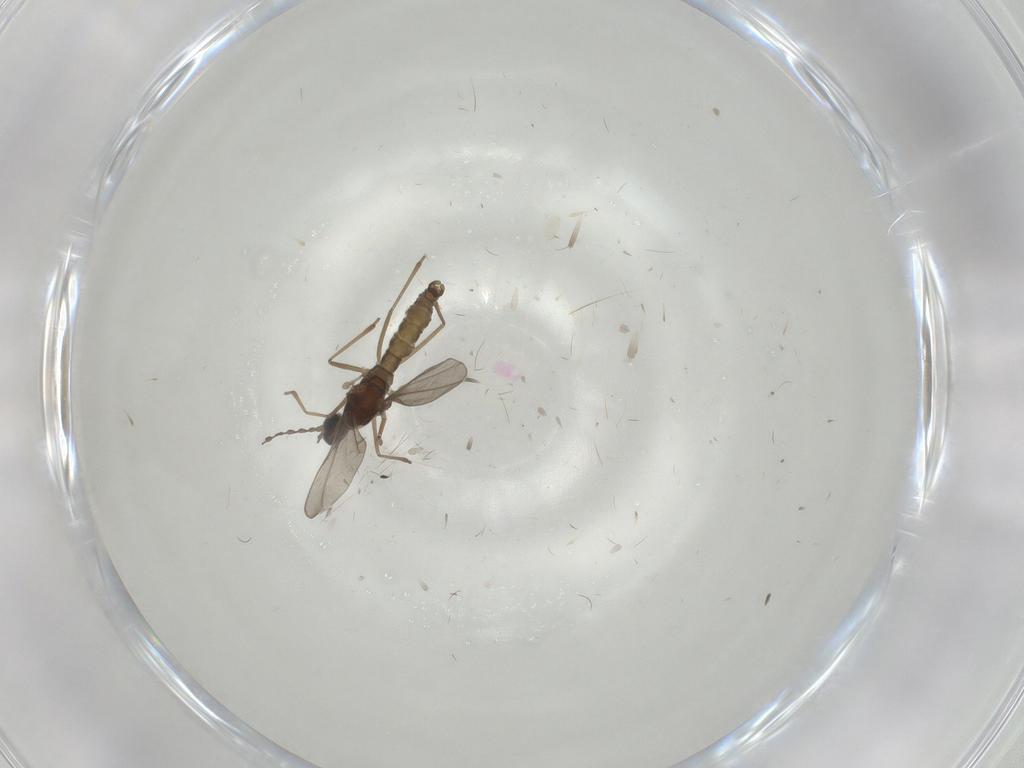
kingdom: Animalia
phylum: Arthropoda
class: Insecta
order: Diptera
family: Cecidomyiidae
